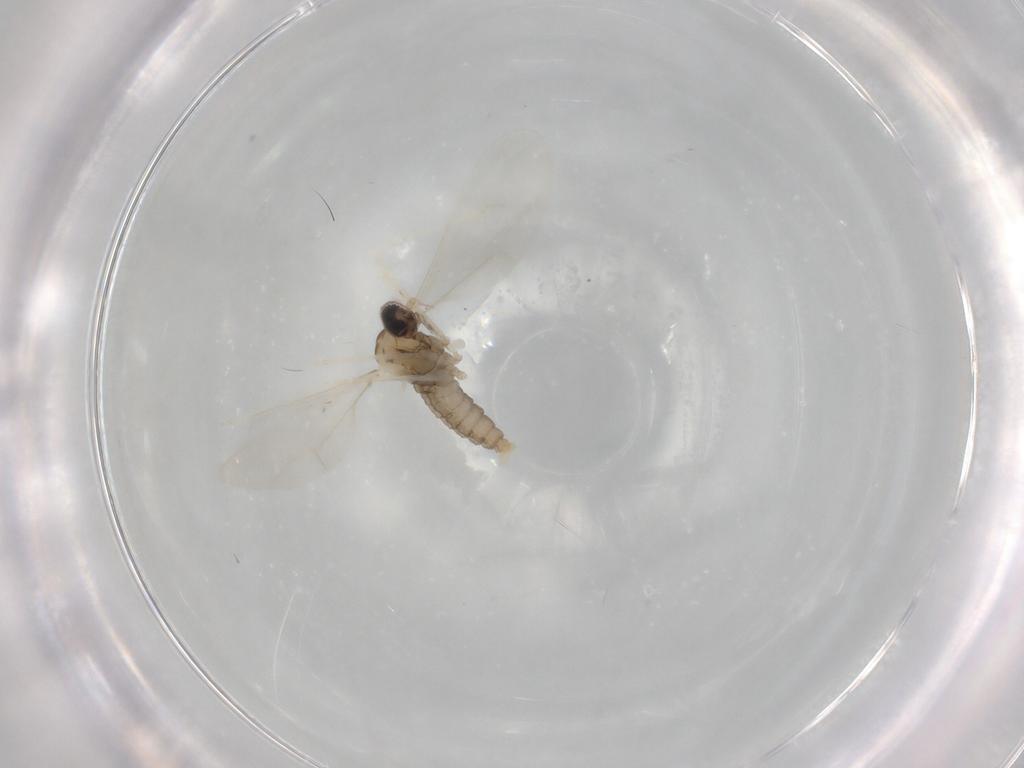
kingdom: Animalia
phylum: Arthropoda
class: Insecta
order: Diptera
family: Cecidomyiidae
